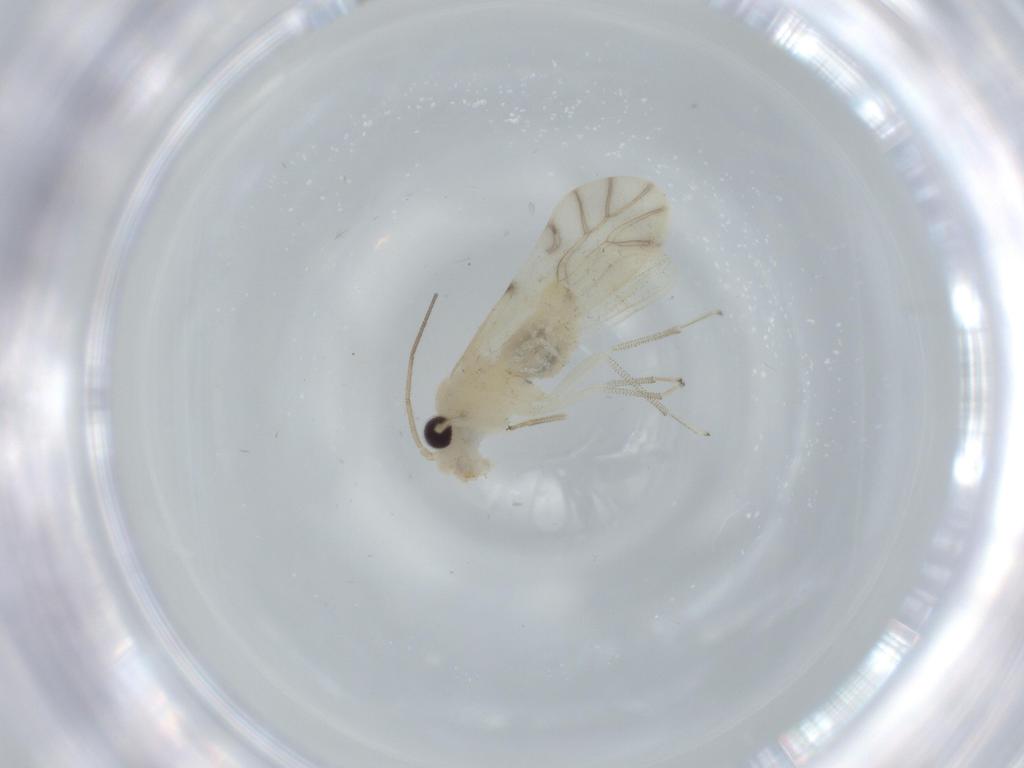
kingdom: Animalia
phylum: Arthropoda
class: Insecta
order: Psocodea
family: Caeciliusidae
